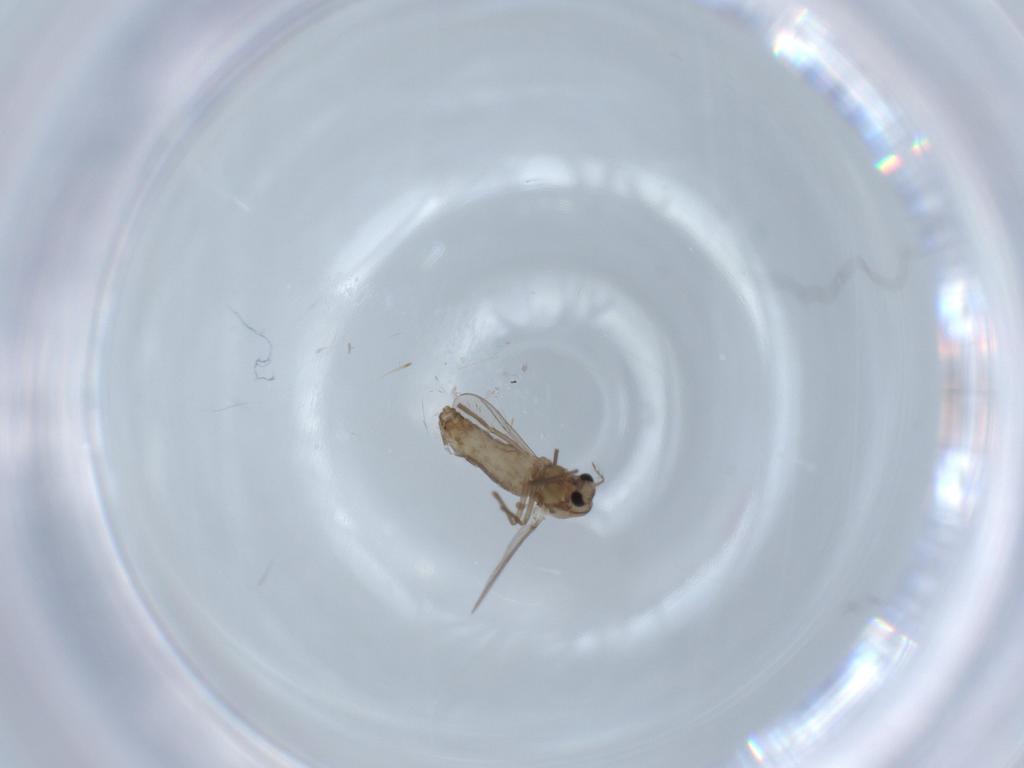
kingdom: Animalia
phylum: Arthropoda
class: Insecta
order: Diptera
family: Chironomidae
